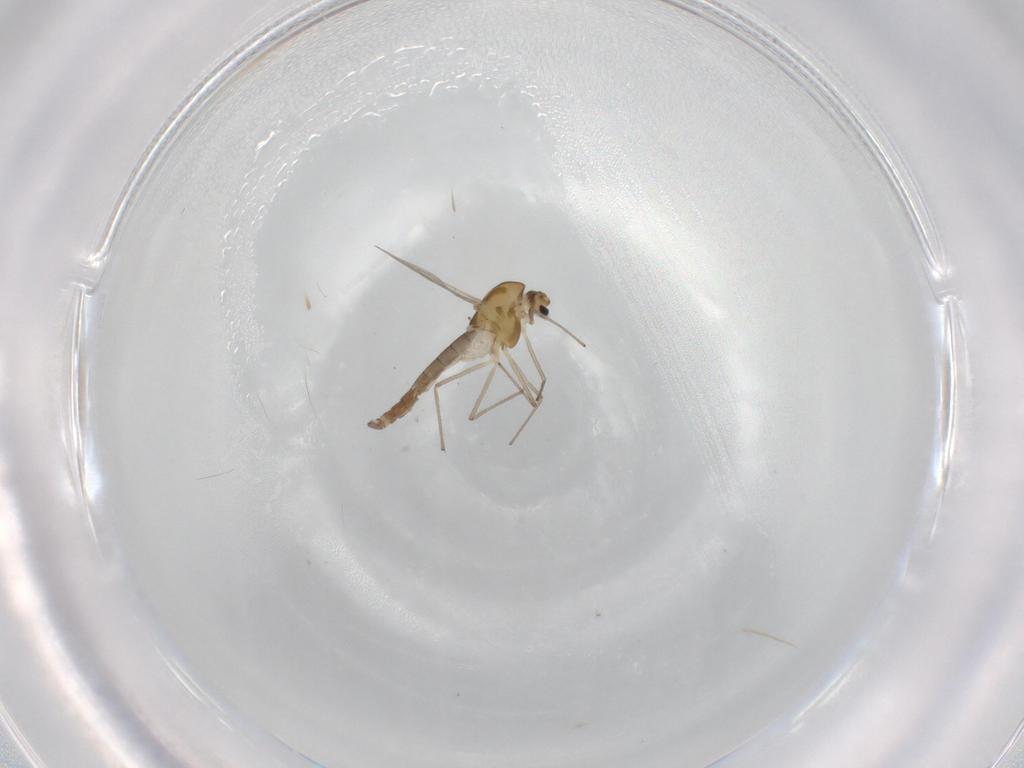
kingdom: Animalia
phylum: Arthropoda
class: Insecta
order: Diptera
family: Chironomidae
